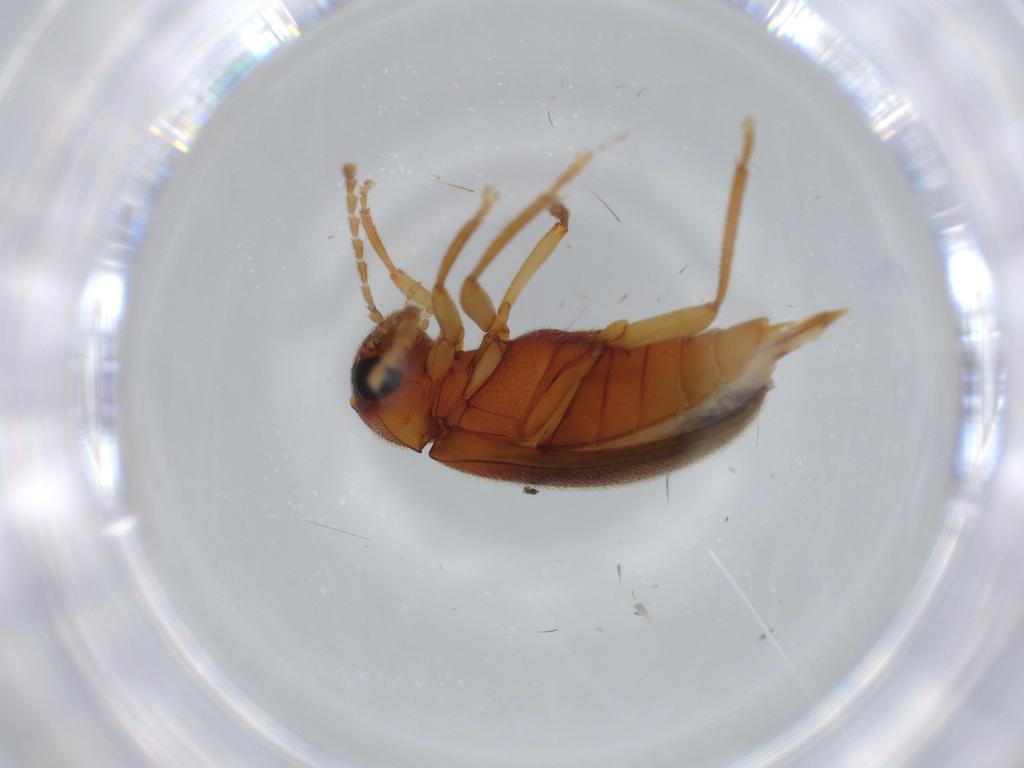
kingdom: Animalia
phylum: Arthropoda
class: Insecta
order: Coleoptera
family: Ptilodactylidae
